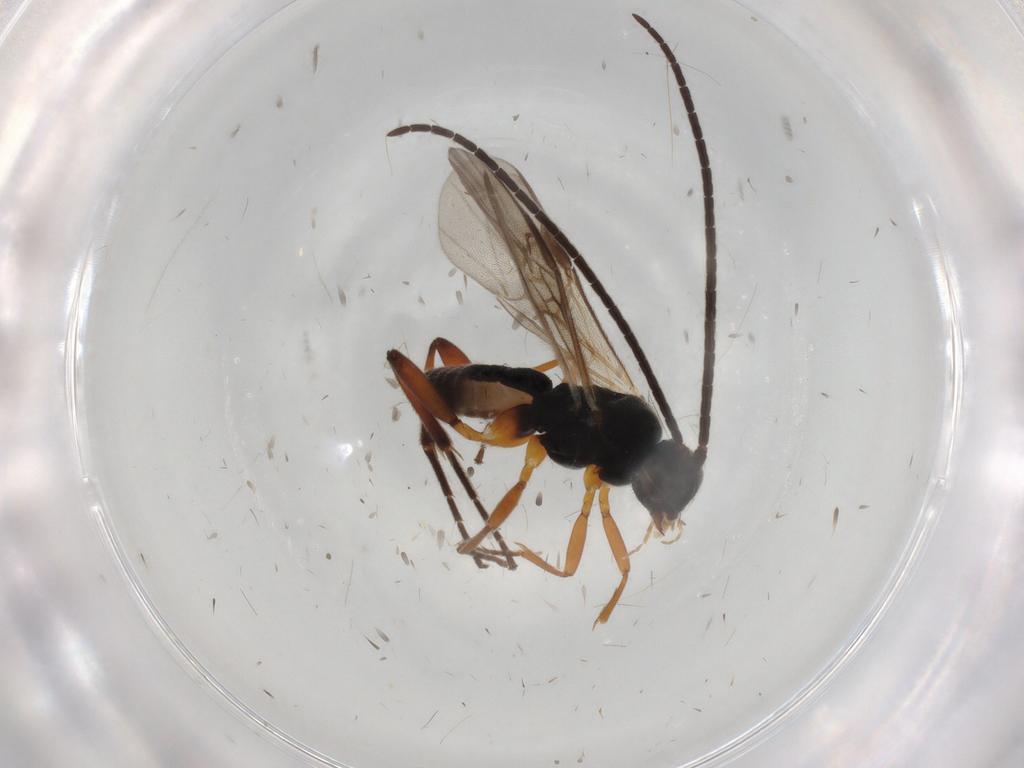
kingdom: Animalia
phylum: Arthropoda
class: Insecta
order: Hymenoptera
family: Braconidae
